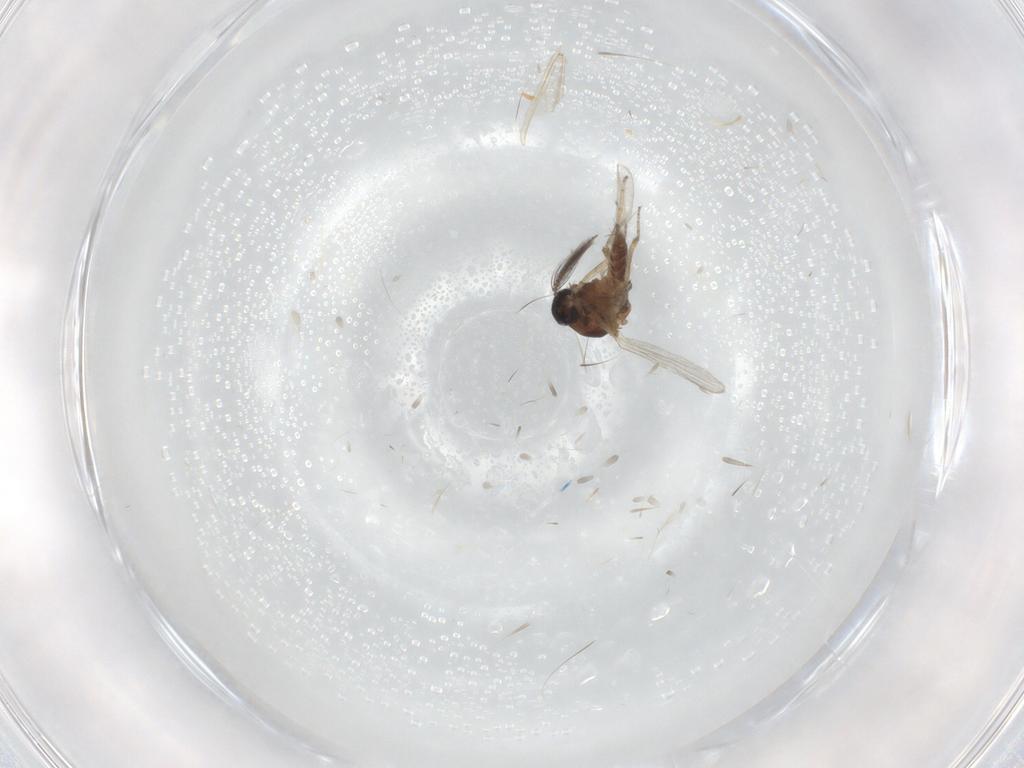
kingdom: Animalia
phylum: Arthropoda
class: Insecta
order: Diptera
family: Ceratopogonidae
